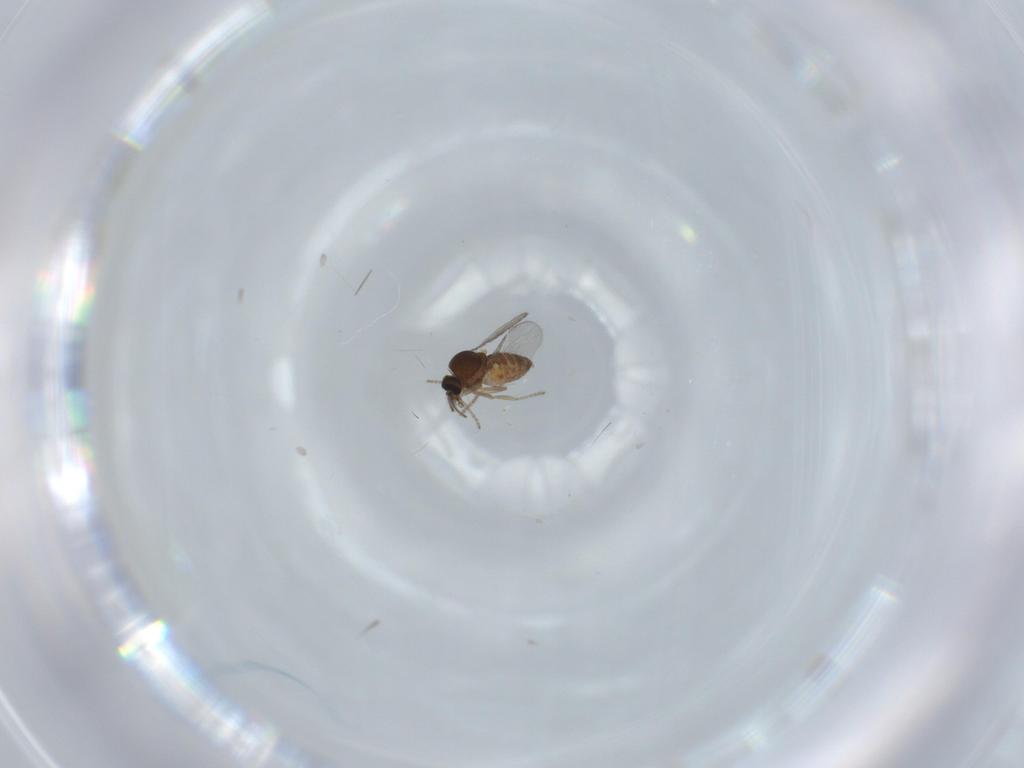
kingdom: Animalia
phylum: Arthropoda
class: Insecta
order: Diptera
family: Ceratopogonidae
